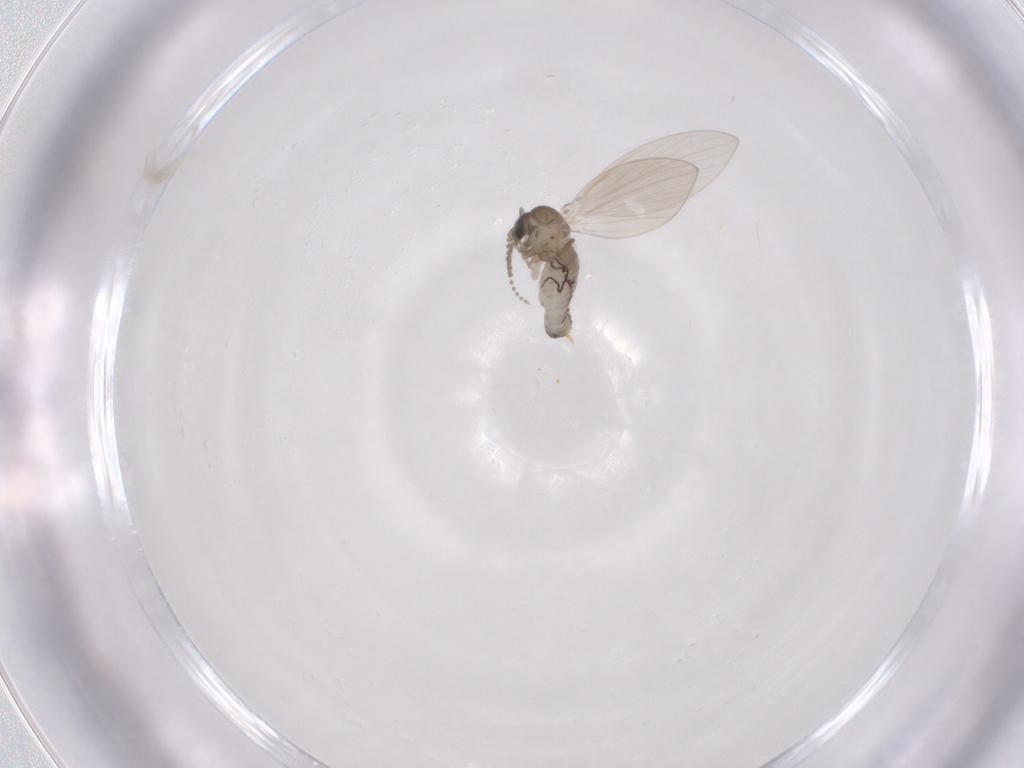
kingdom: Animalia
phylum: Arthropoda
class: Insecta
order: Diptera
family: Psychodidae
